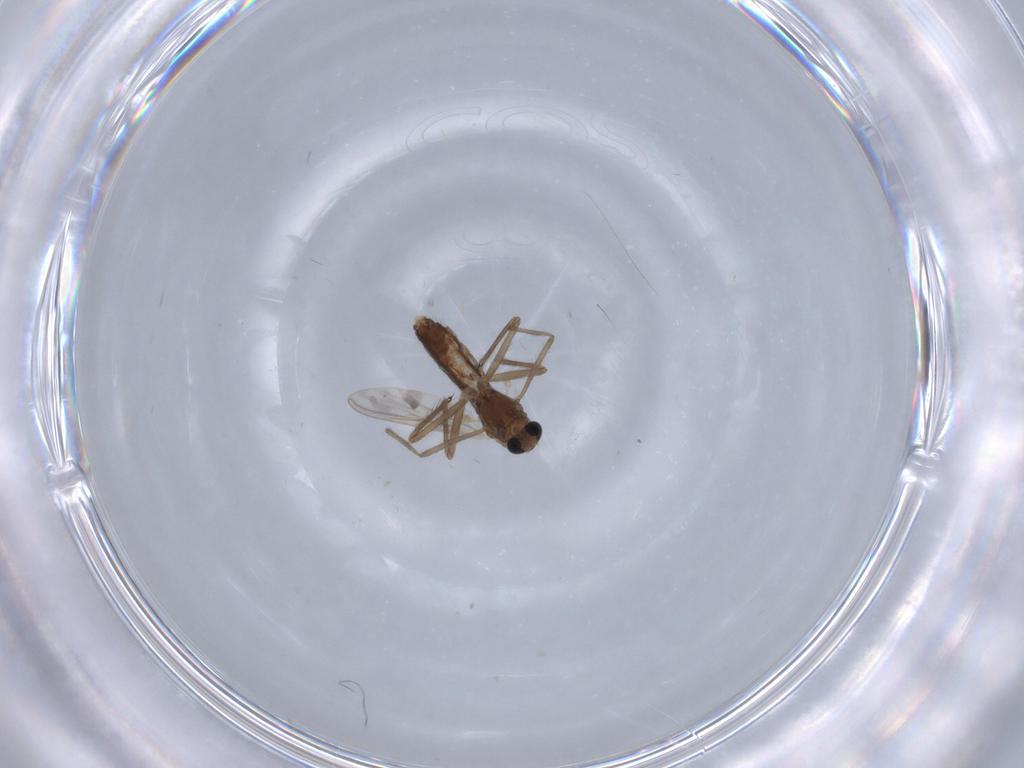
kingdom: Animalia
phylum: Arthropoda
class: Insecta
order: Diptera
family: Chironomidae
